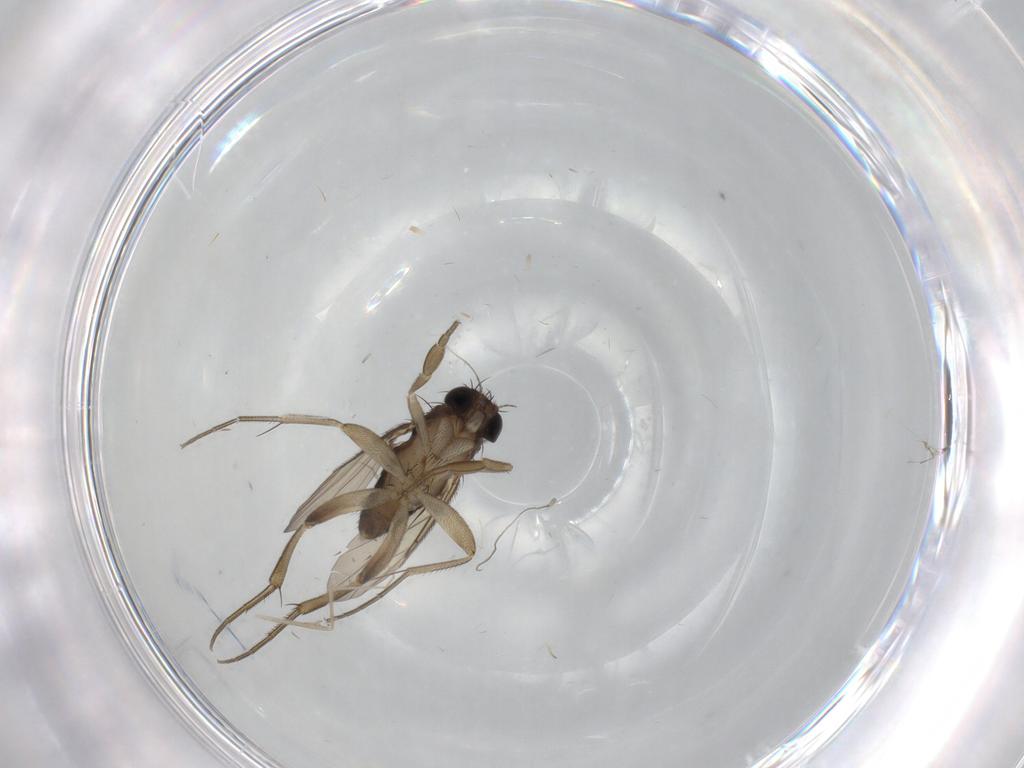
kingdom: Animalia
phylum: Arthropoda
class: Insecta
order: Diptera
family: Phoridae
